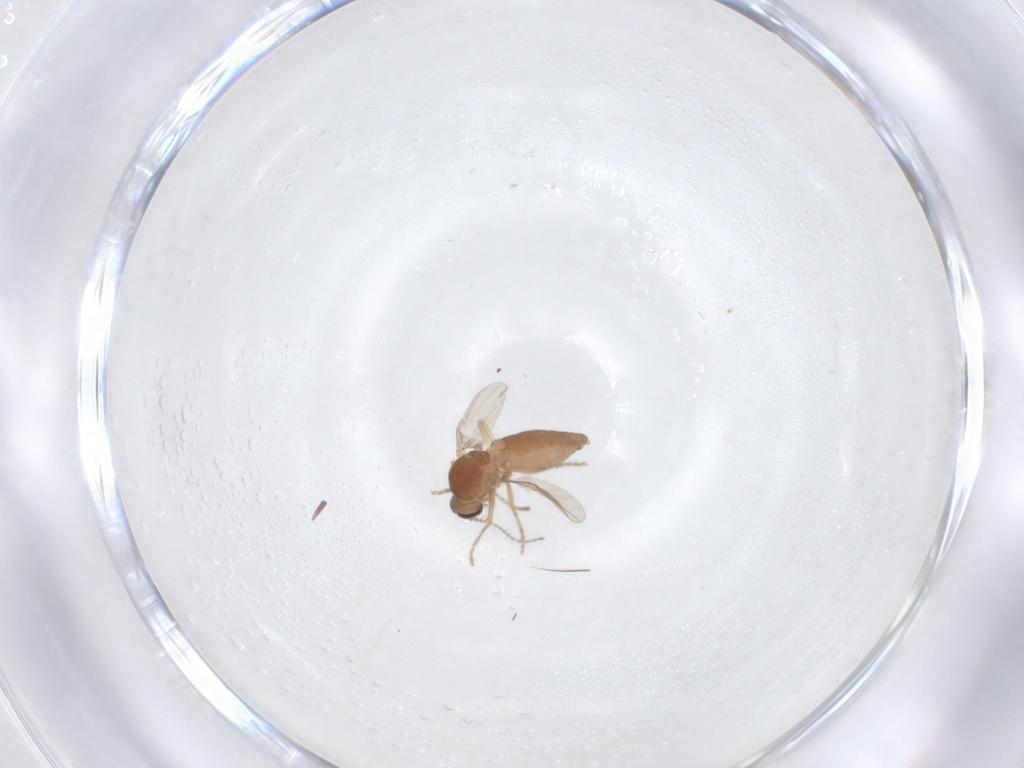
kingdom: Animalia
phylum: Arthropoda
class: Insecta
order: Diptera
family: Ceratopogonidae
